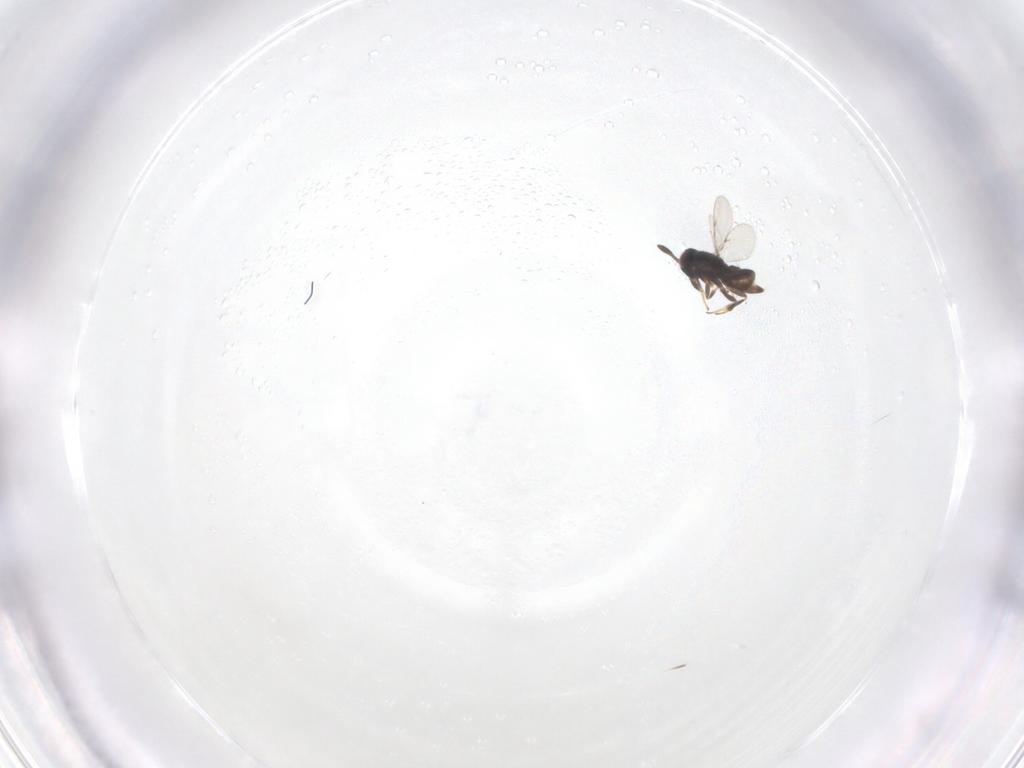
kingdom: Animalia
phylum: Arthropoda
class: Insecta
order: Hymenoptera
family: Aphelinidae
